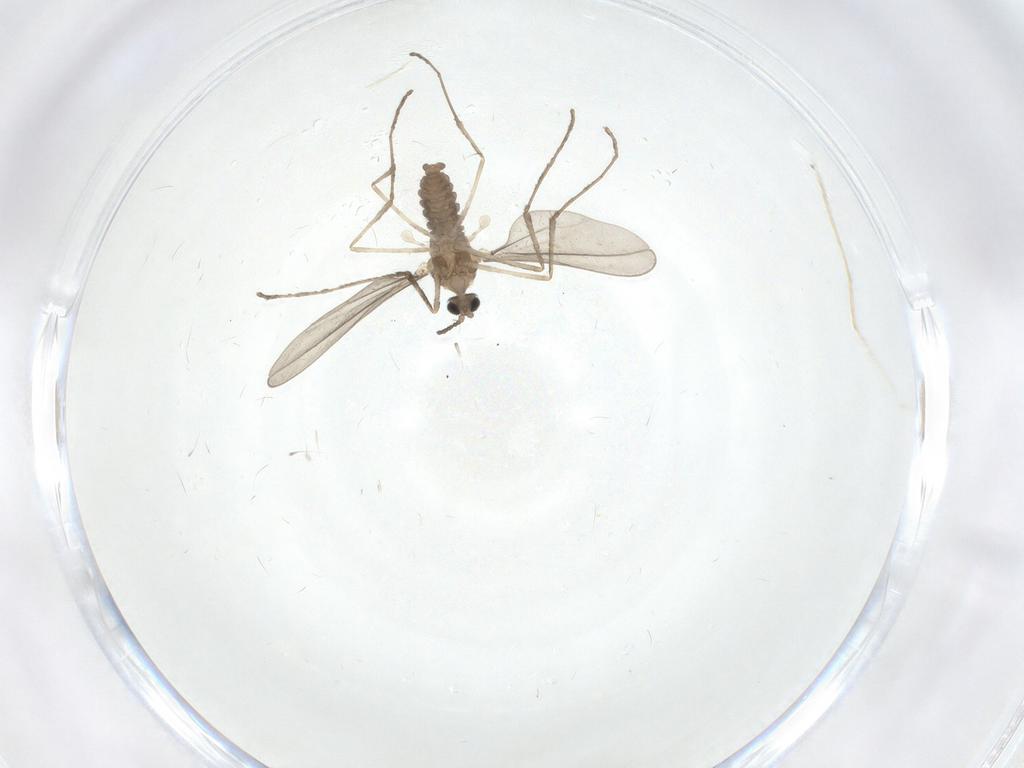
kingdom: Animalia
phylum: Arthropoda
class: Insecta
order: Diptera
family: Cecidomyiidae
